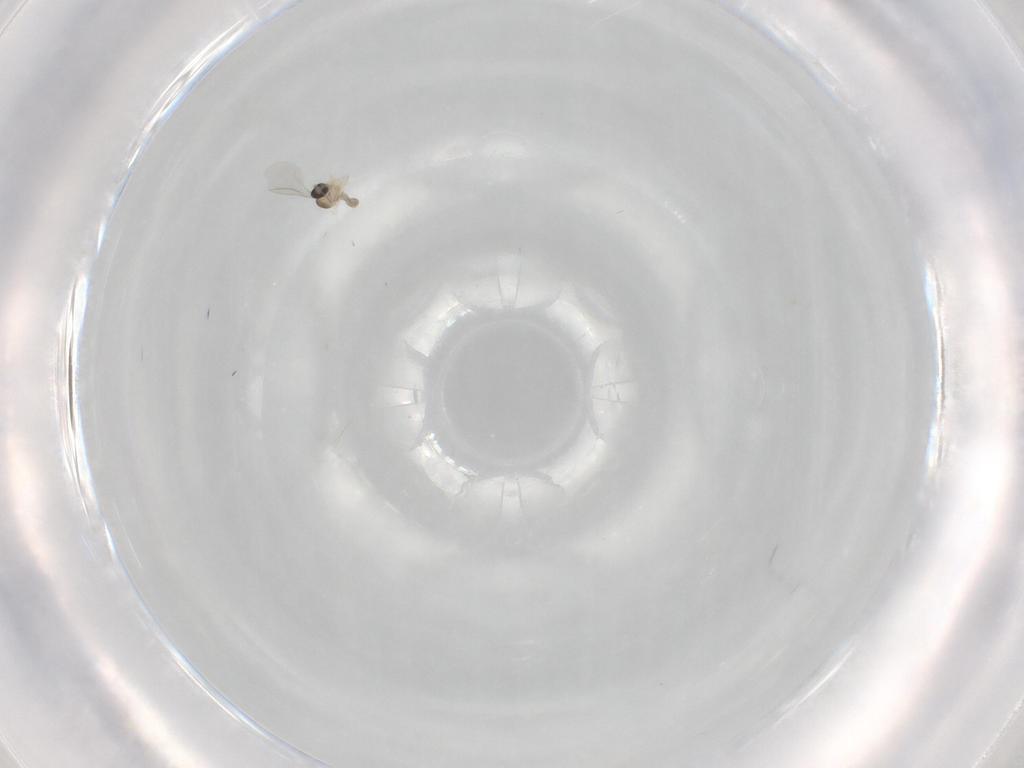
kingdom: Animalia
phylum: Arthropoda
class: Insecta
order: Diptera
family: Cecidomyiidae
